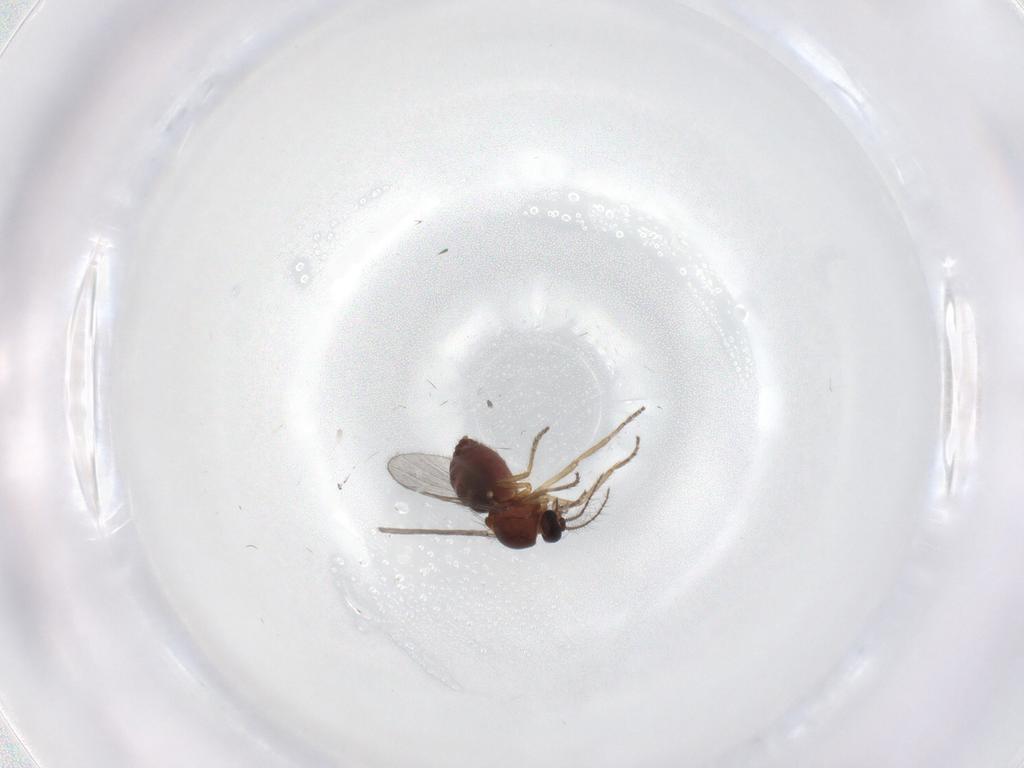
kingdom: Animalia
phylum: Arthropoda
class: Insecta
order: Diptera
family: Ceratopogonidae
